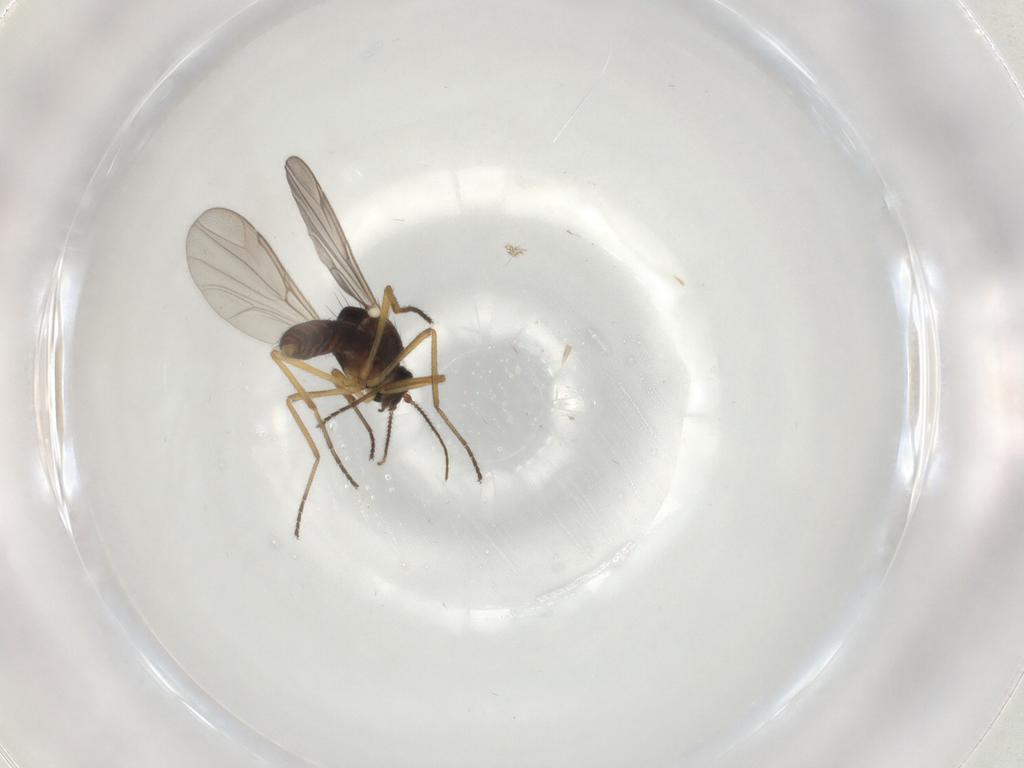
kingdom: Animalia
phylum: Arthropoda
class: Insecta
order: Diptera
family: Ceratopogonidae
